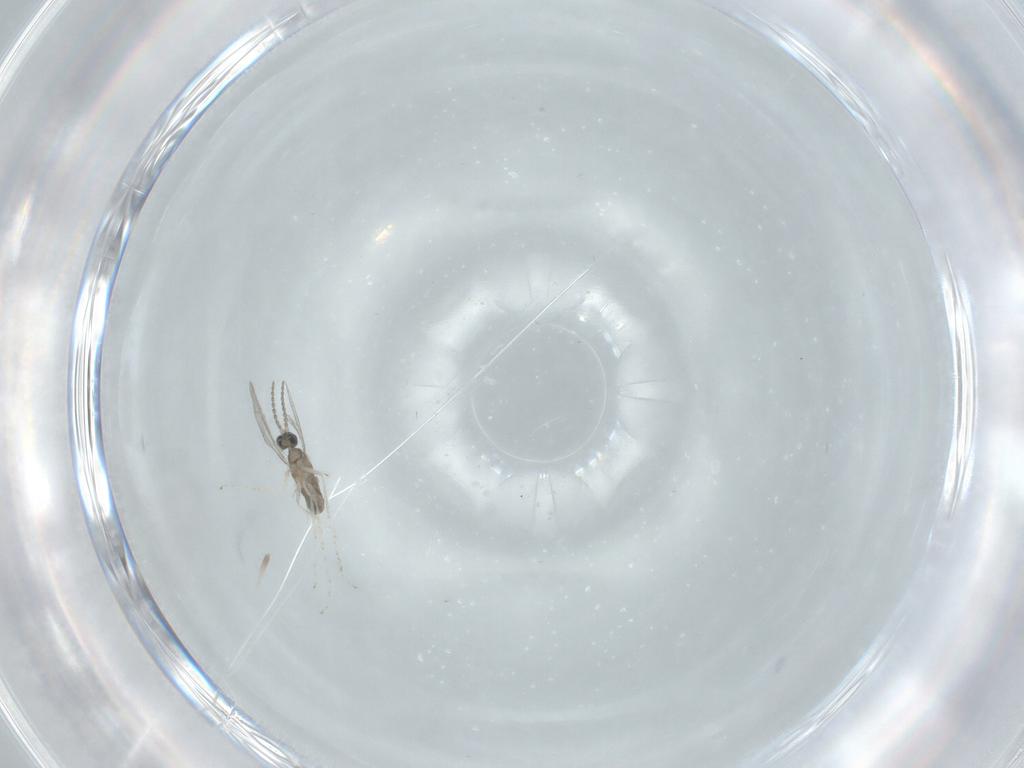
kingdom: Animalia
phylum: Arthropoda
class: Insecta
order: Diptera
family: Scatopsidae
